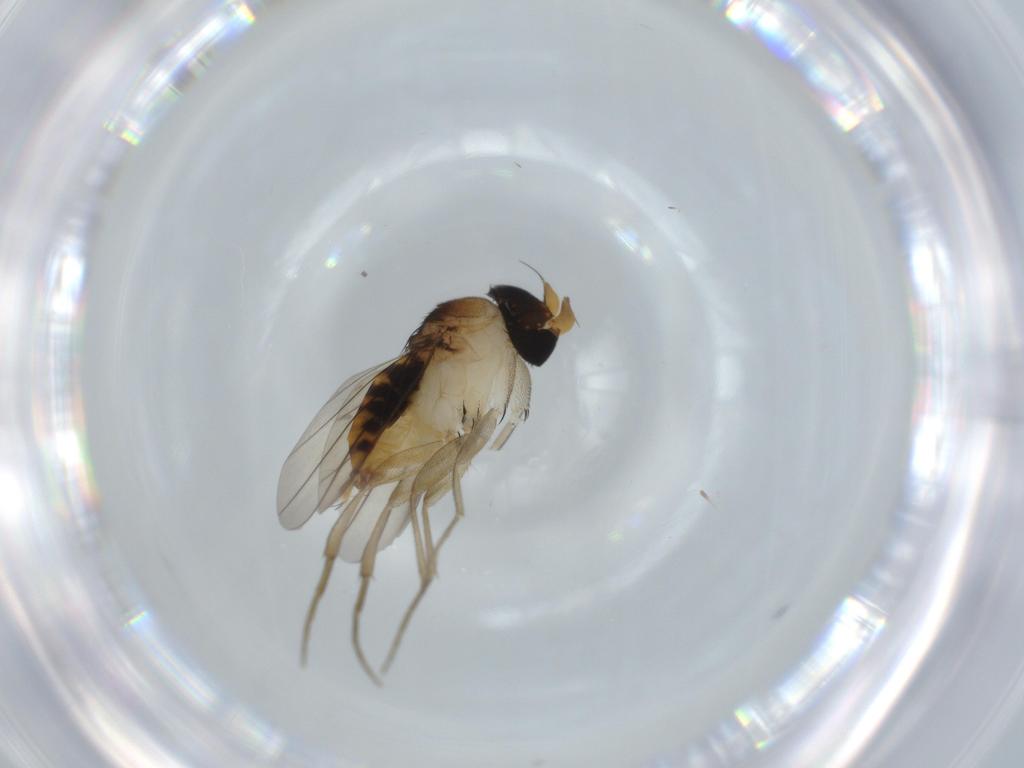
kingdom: Animalia
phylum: Arthropoda
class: Insecta
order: Diptera
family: Phoridae
